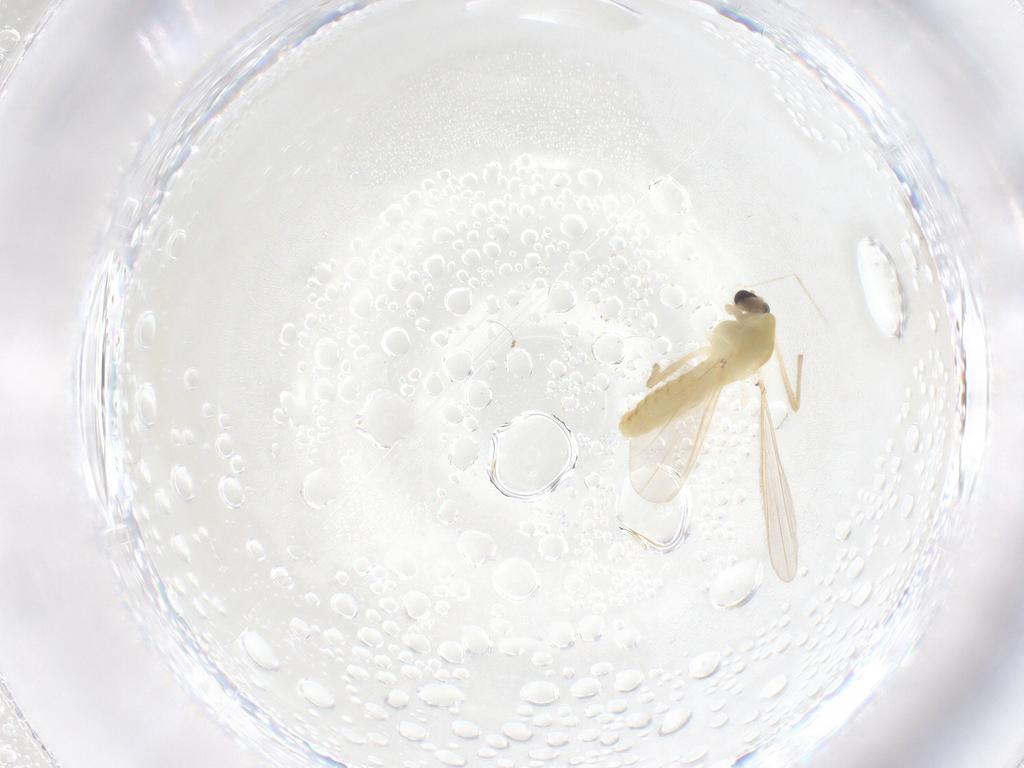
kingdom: Animalia
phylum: Arthropoda
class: Insecta
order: Diptera
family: Chironomidae
